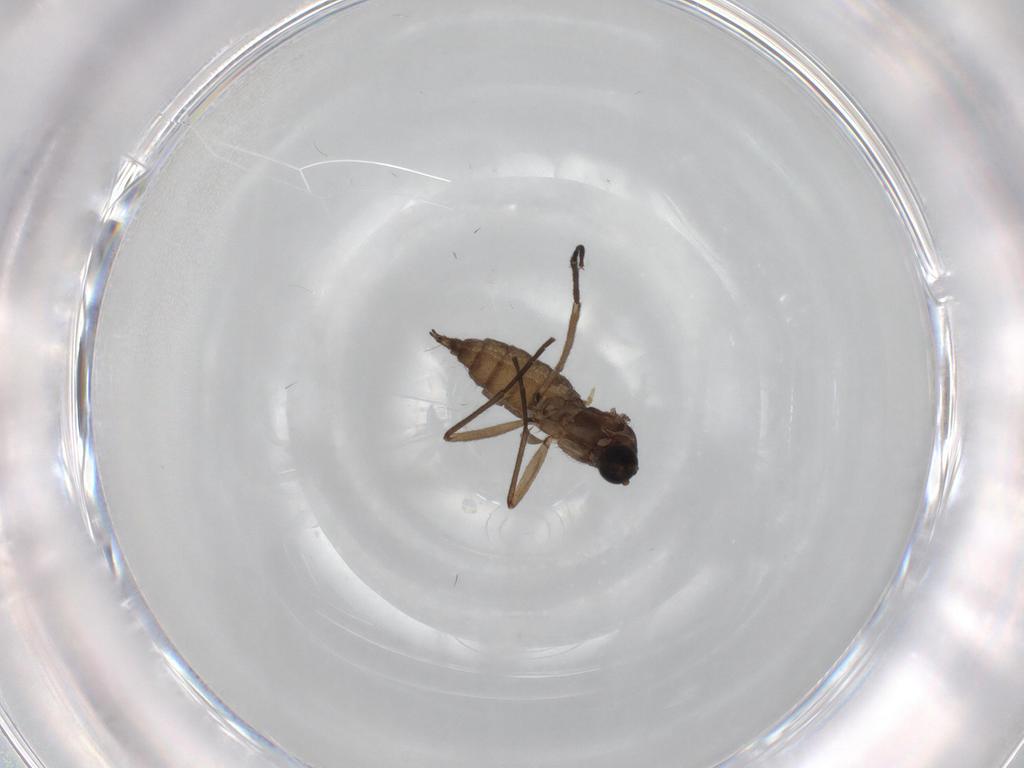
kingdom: Animalia
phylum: Arthropoda
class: Insecta
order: Diptera
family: Sciaridae
